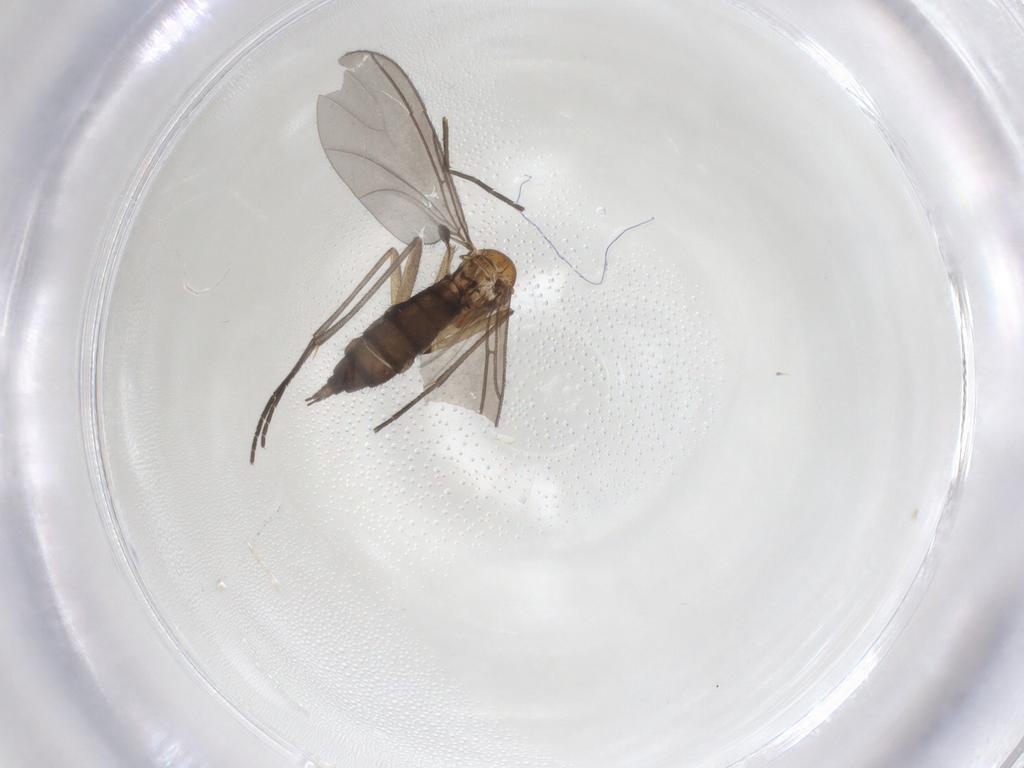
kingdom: Animalia
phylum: Arthropoda
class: Insecta
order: Diptera
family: Sciaridae
